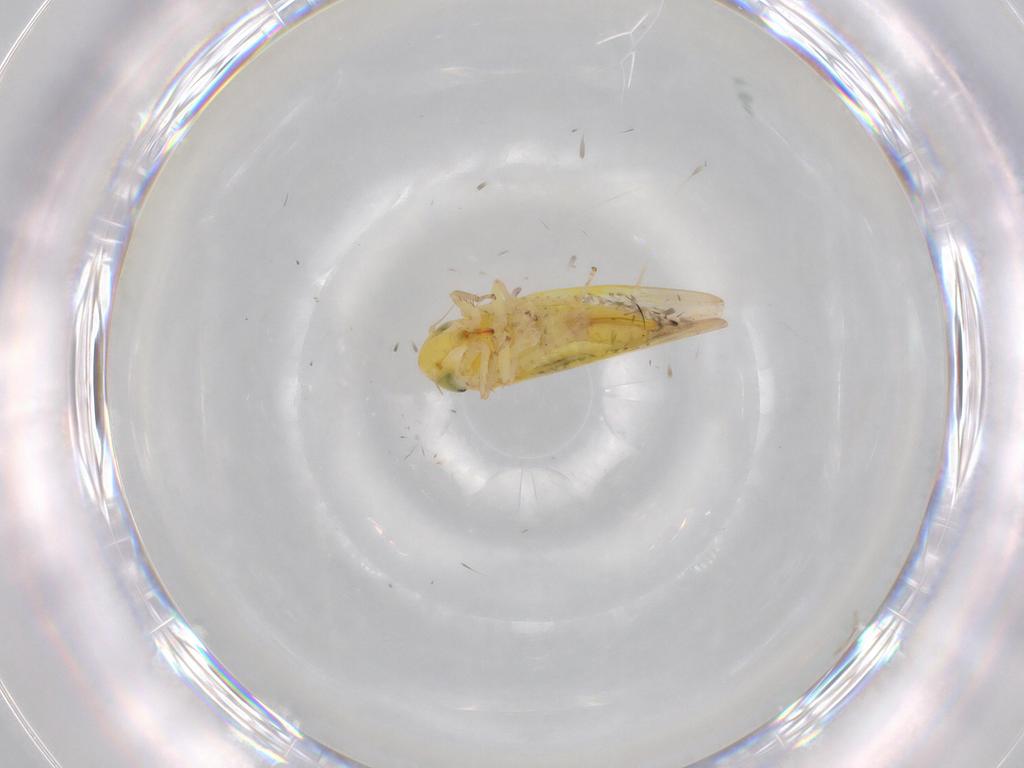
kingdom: Animalia
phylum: Arthropoda
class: Insecta
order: Hemiptera
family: Cicadellidae
